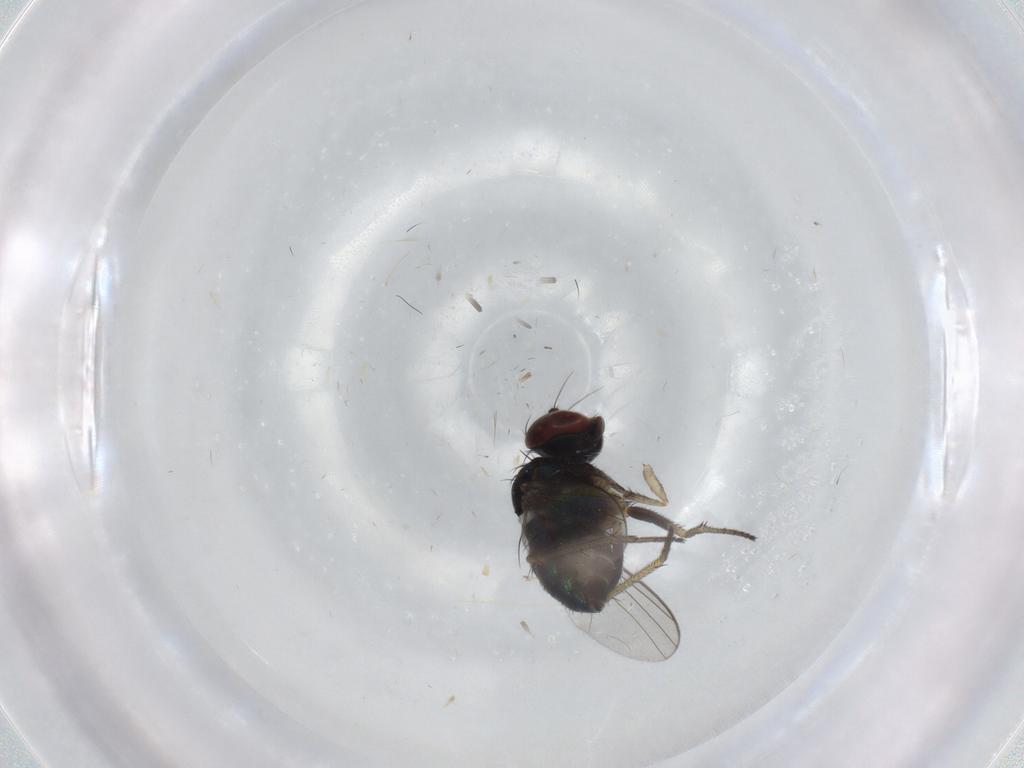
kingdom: Animalia
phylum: Arthropoda
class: Insecta
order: Diptera
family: Psychodidae
